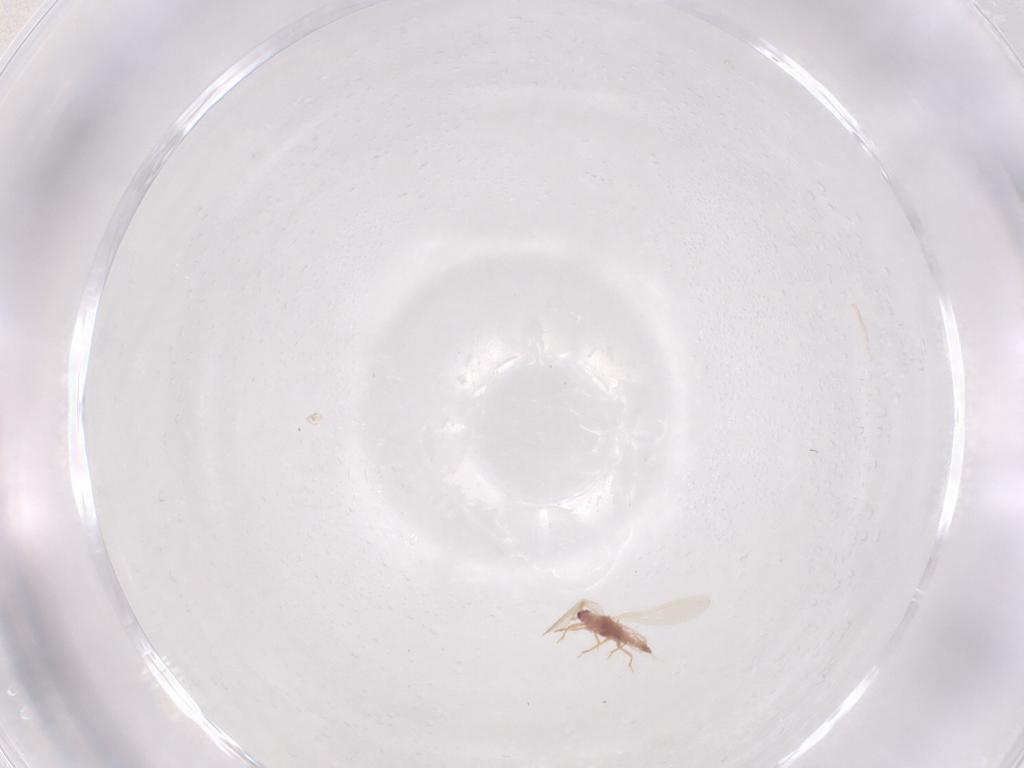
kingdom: Animalia
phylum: Arthropoda
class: Insecta
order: Hemiptera
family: Pseudococcidae
